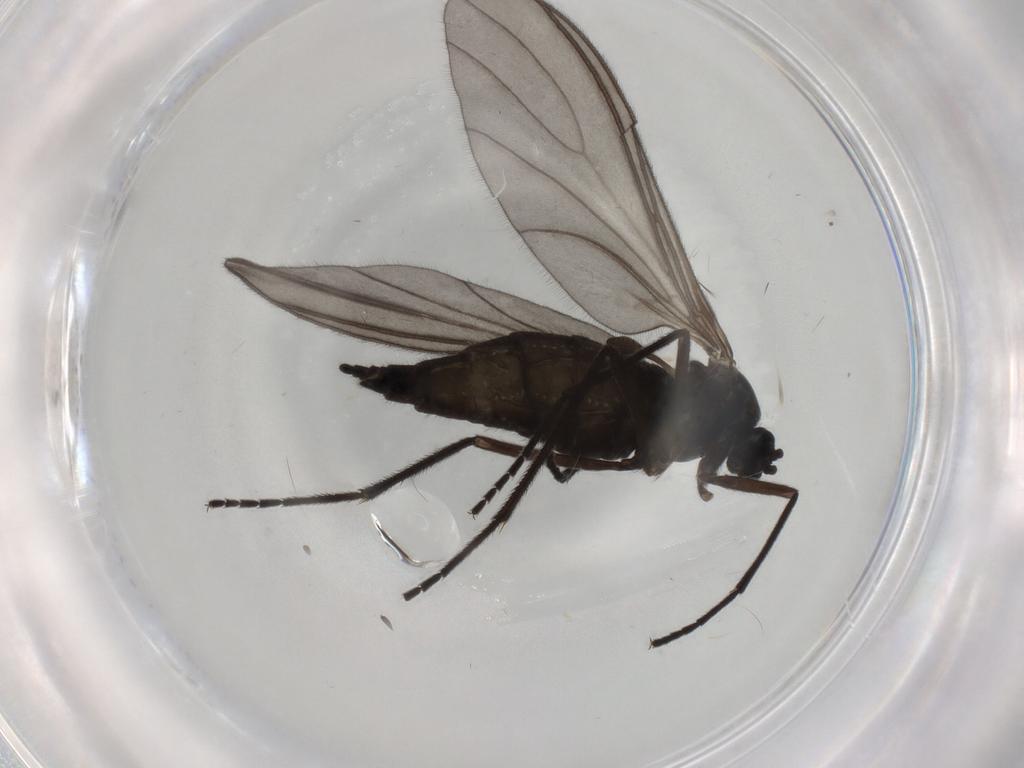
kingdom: Animalia
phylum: Arthropoda
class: Insecta
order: Diptera
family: Sciaridae
